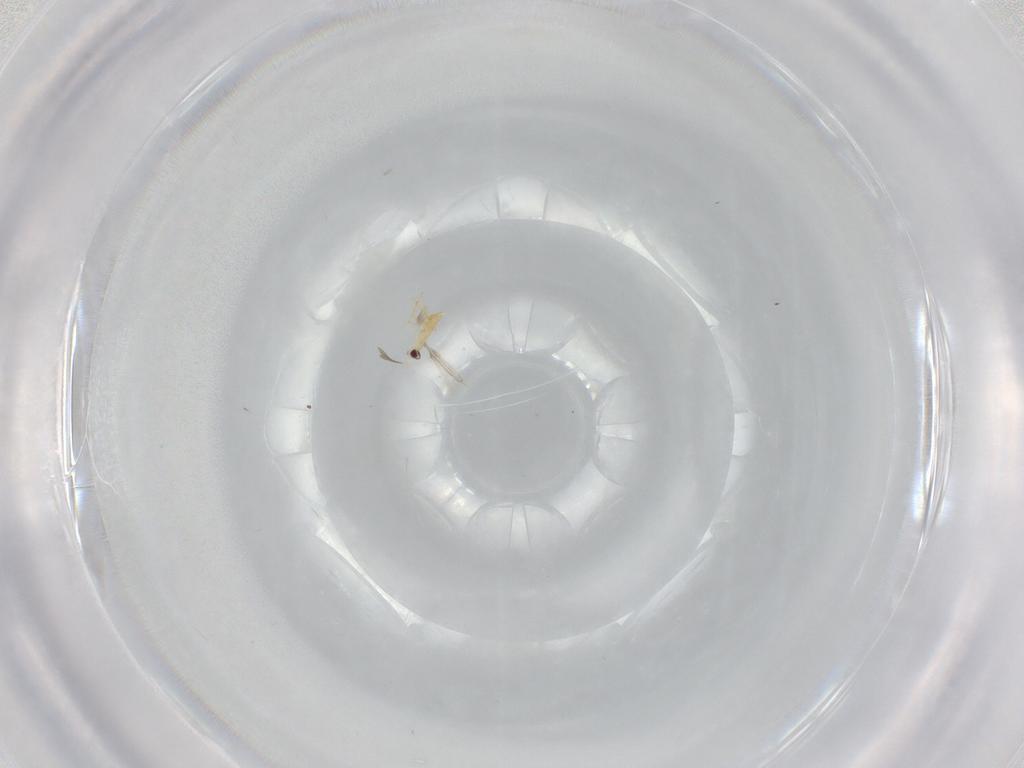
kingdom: Animalia
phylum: Arthropoda
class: Insecta
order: Hymenoptera
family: Mymaridae
